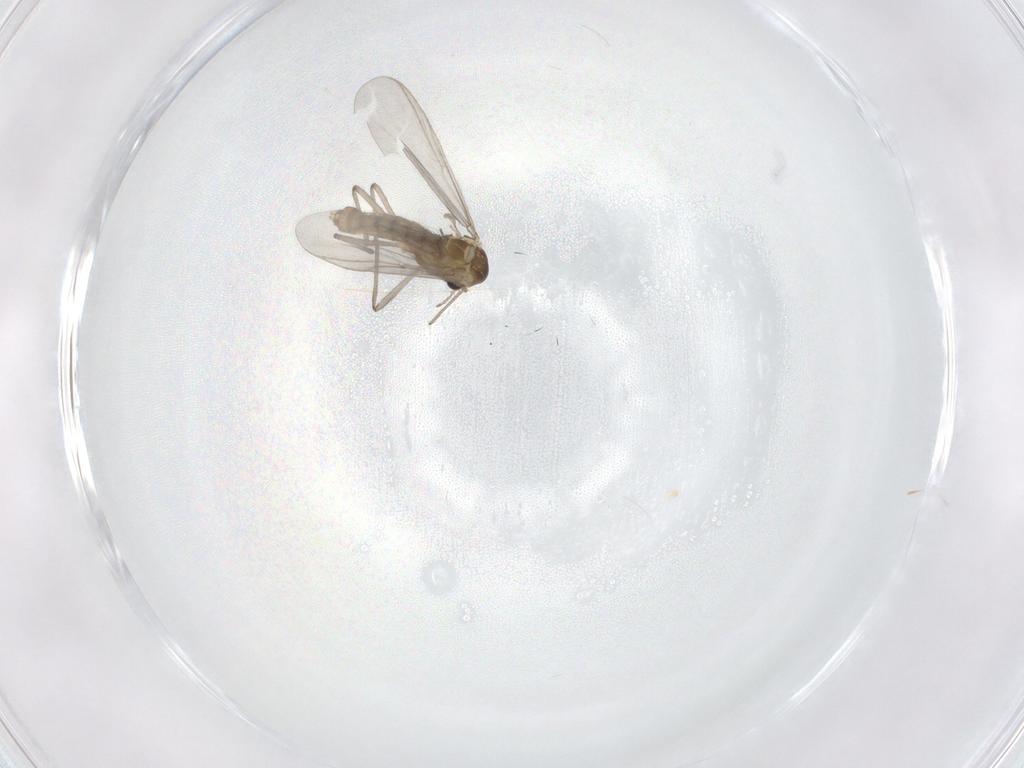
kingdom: Animalia
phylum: Arthropoda
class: Insecta
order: Diptera
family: Chironomidae
